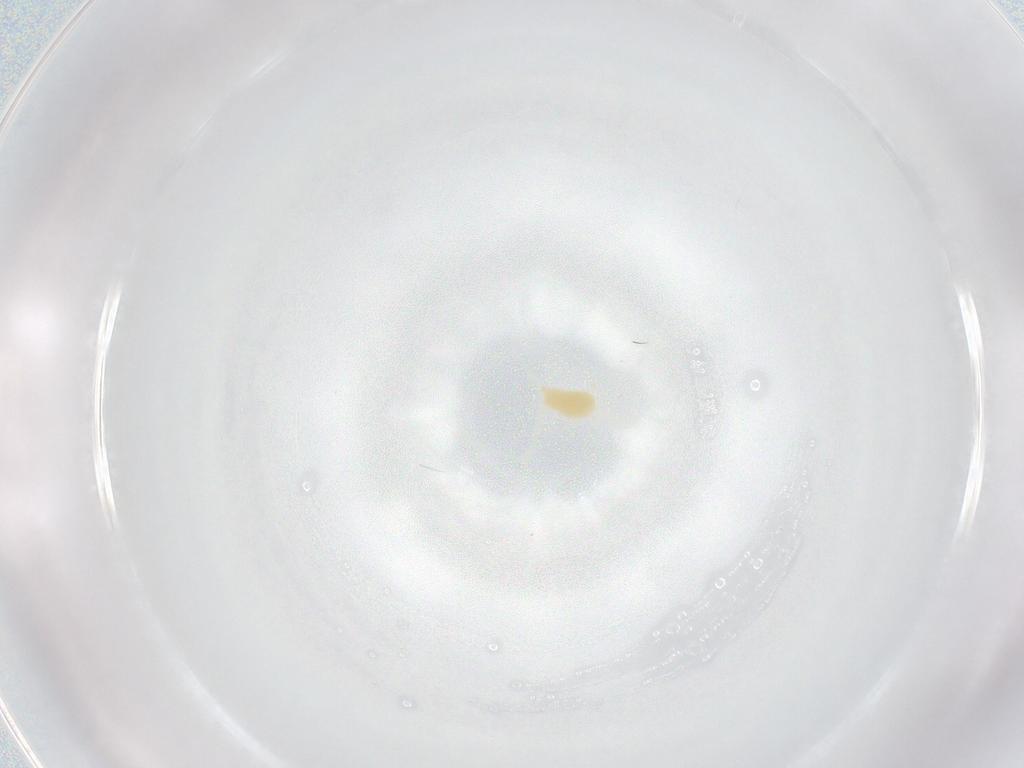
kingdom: Animalia
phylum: Arthropoda
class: Arachnida
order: Trombidiformes
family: Tetranychidae
